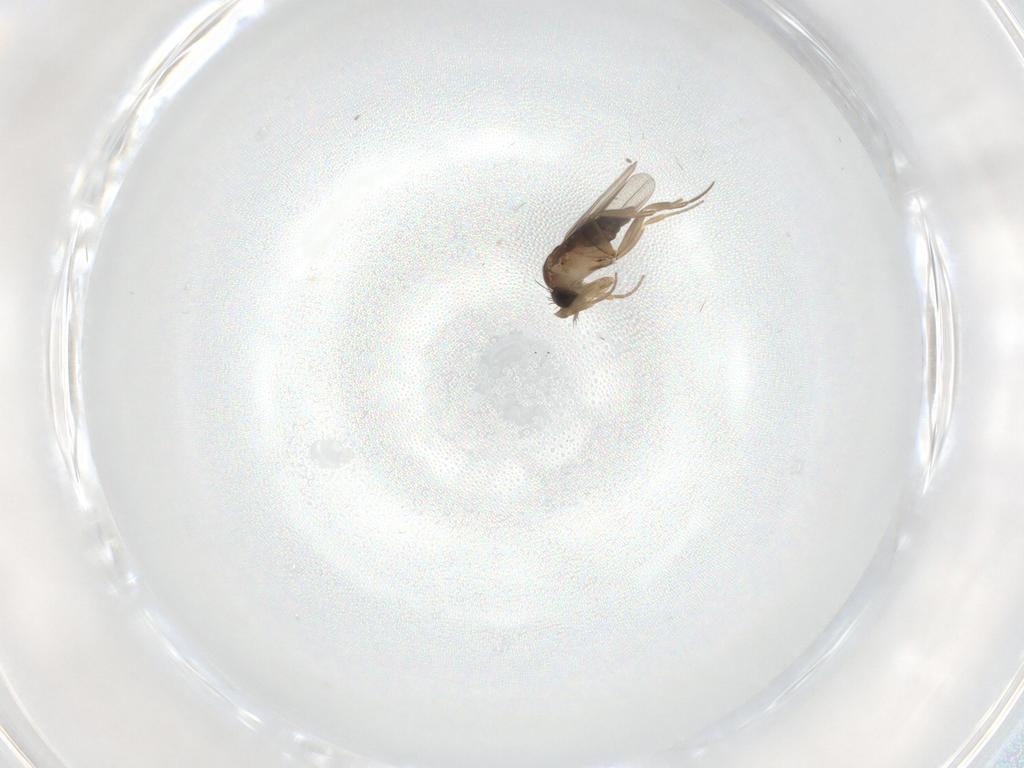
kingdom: Animalia
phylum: Arthropoda
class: Insecta
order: Diptera
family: Phoridae
